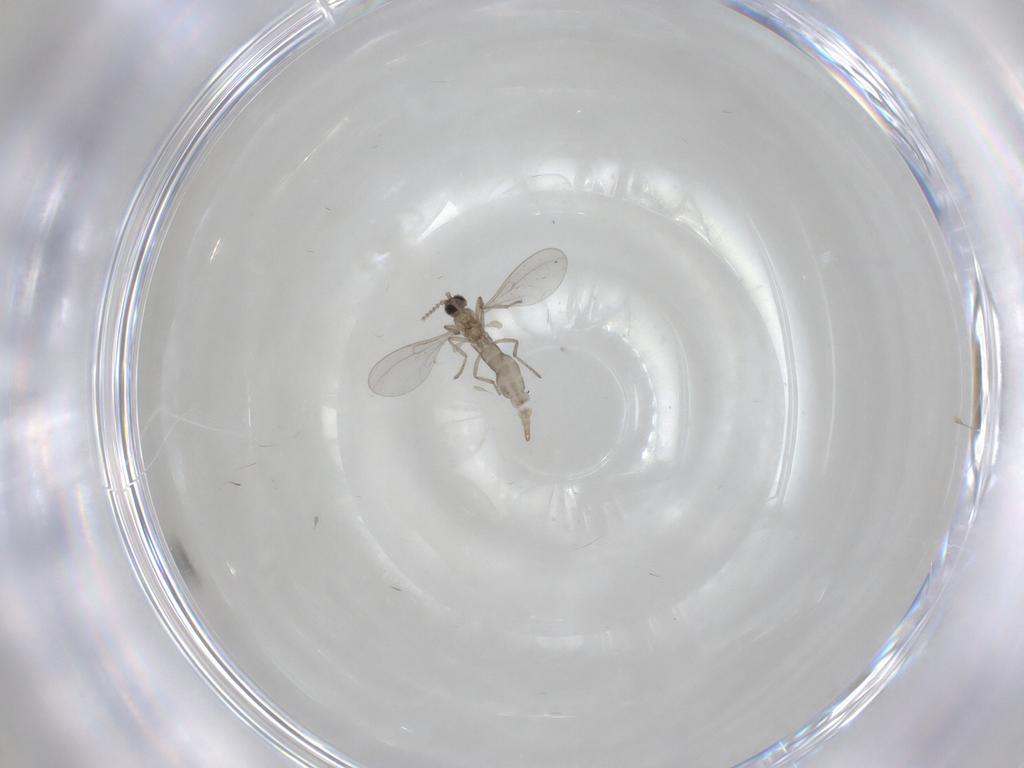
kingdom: Animalia
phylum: Arthropoda
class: Insecta
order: Diptera
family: Cecidomyiidae
